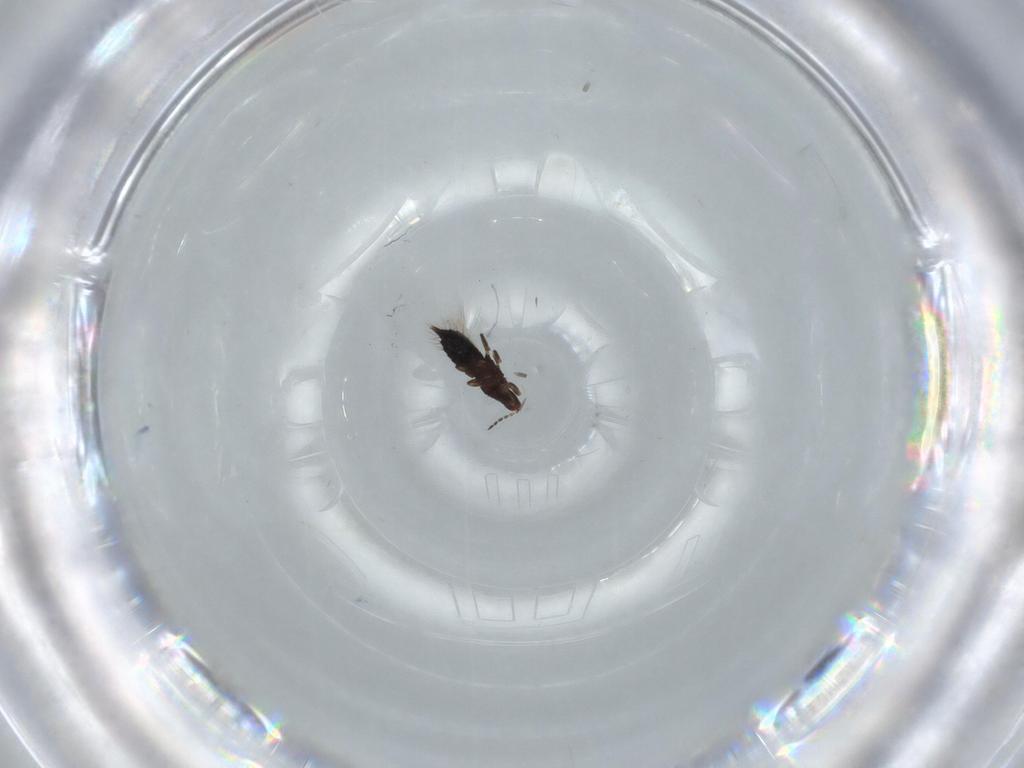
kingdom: Animalia
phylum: Arthropoda
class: Insecta
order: Thysanoptera
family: Phlaeothripidae
